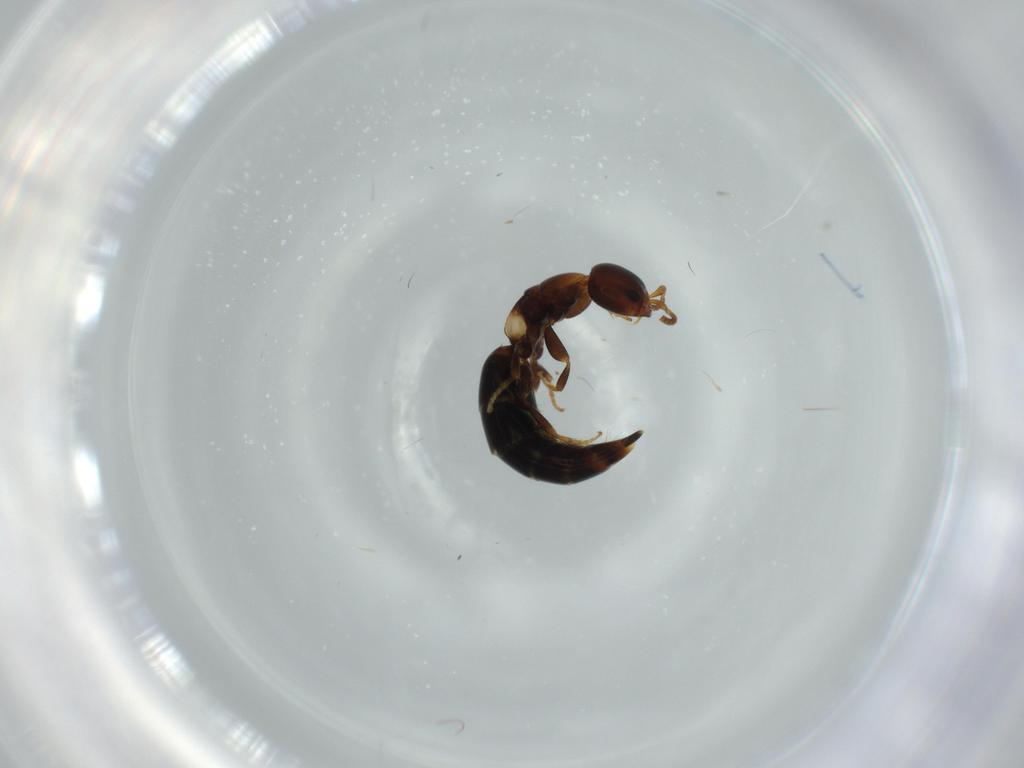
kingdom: Animalia
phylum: Arthropoda
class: Insecta
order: Hymenoptera
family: Bethylidae
